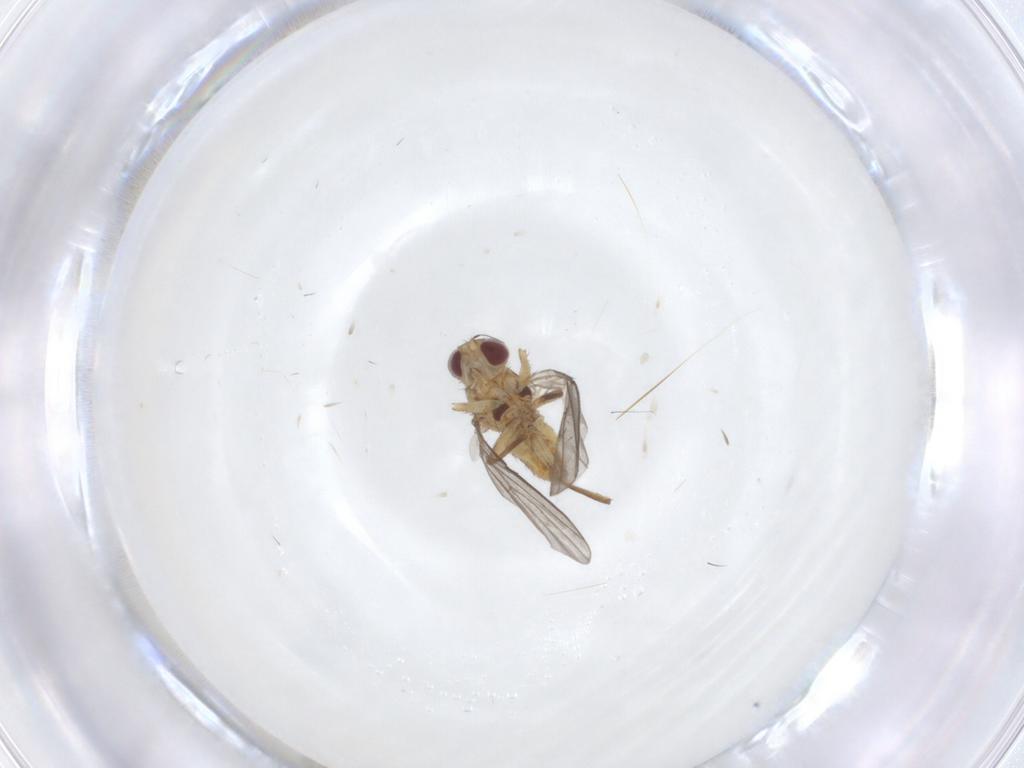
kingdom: Animalia
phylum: Arthropoda
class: Insecta
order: Diptera
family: Agromyzidae
